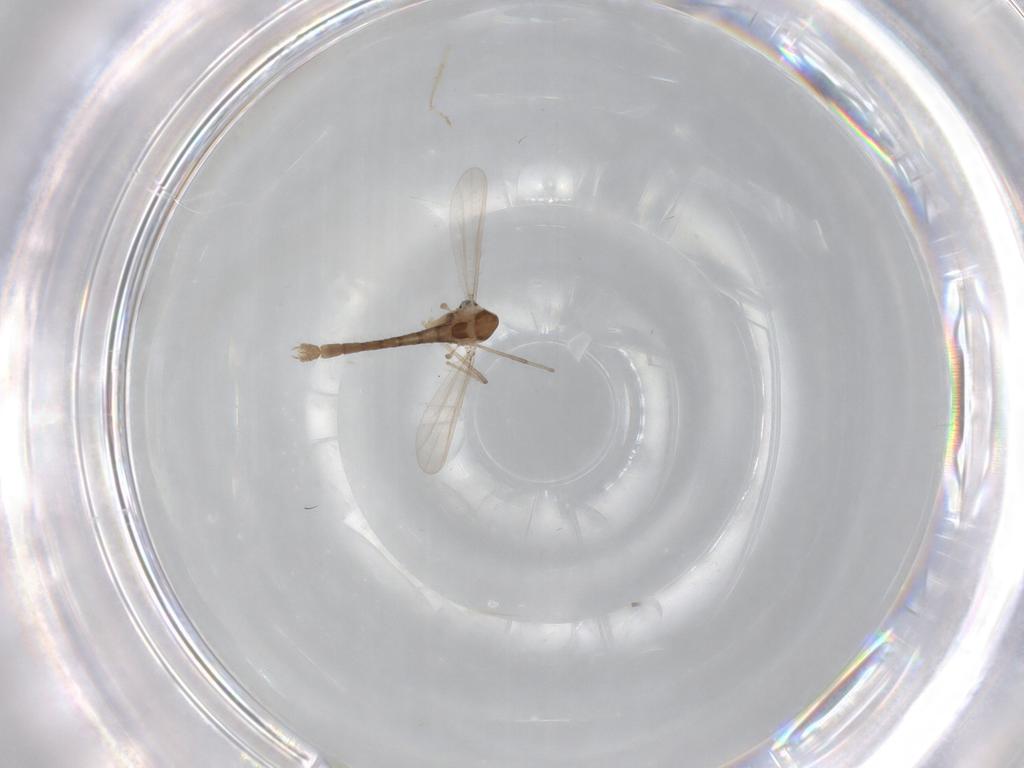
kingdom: Animalia
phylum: Arthropoda
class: Insecta
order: Diptera
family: Chironomidae
